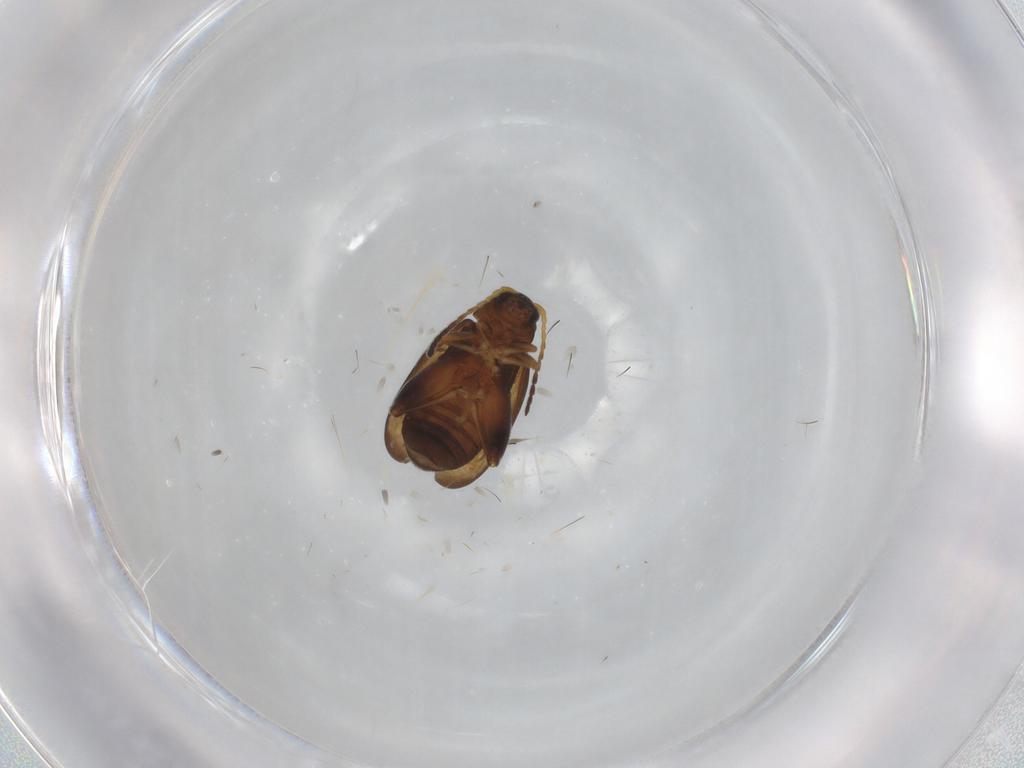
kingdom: Animalia
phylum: Arthropoda
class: Insecta
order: Coleoptera
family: Chrysomelidae
